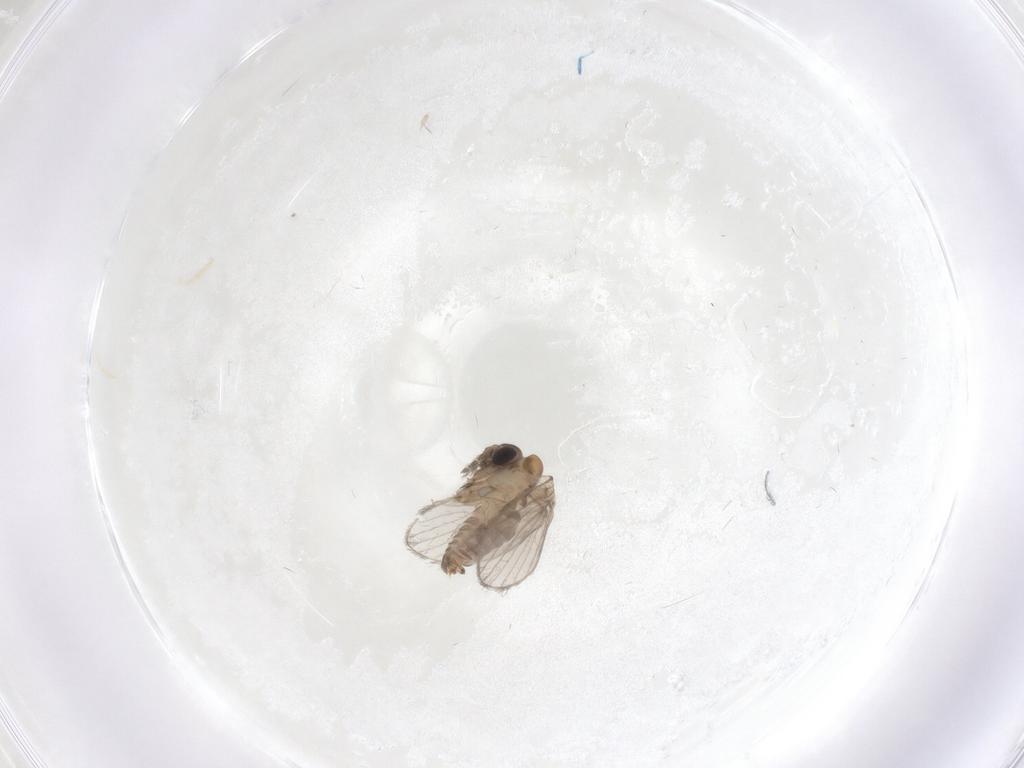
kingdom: Animalia
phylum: Arthropoda
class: Insecta
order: Diptera
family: Psychodidae
